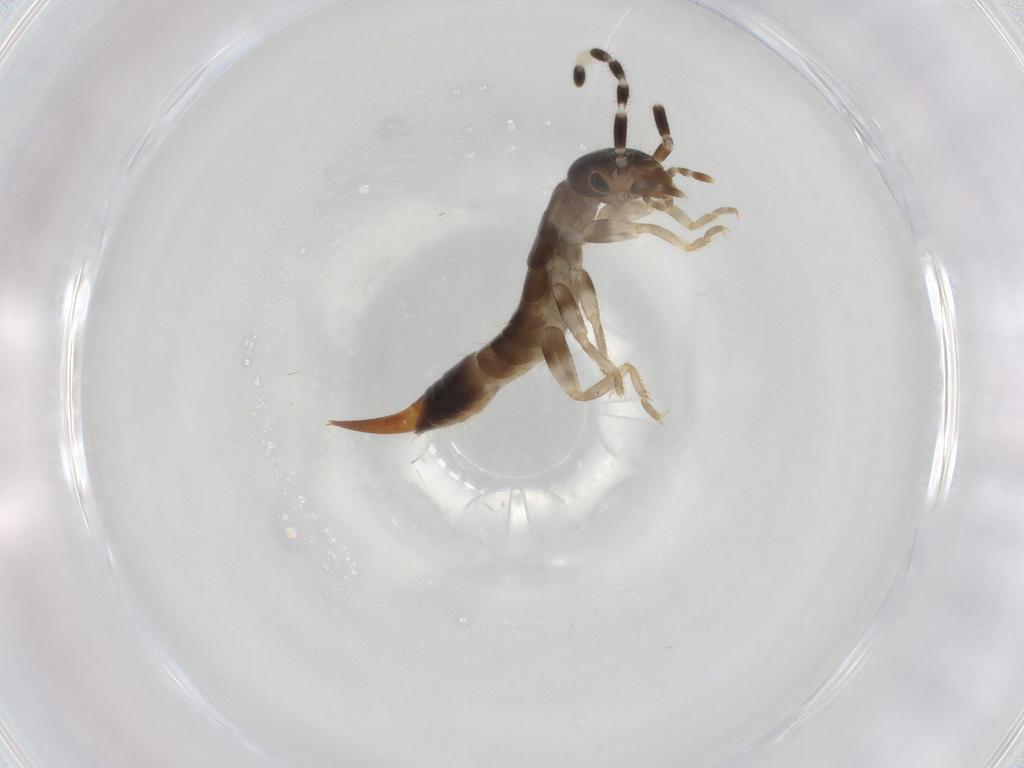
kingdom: Animalia
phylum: Arthropoda
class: Insecta
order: Dermaptera
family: Anisolabididae
